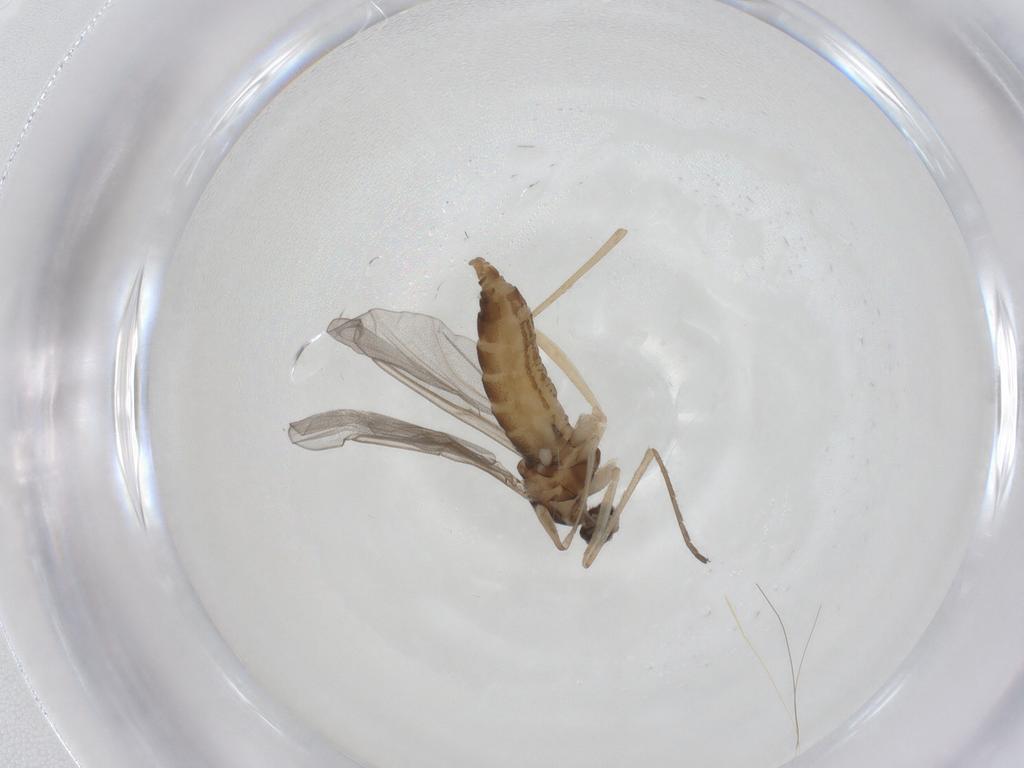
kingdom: Animalia
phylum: Arthropoda
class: Insecta
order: Diptera
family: Cecidomyiidae
